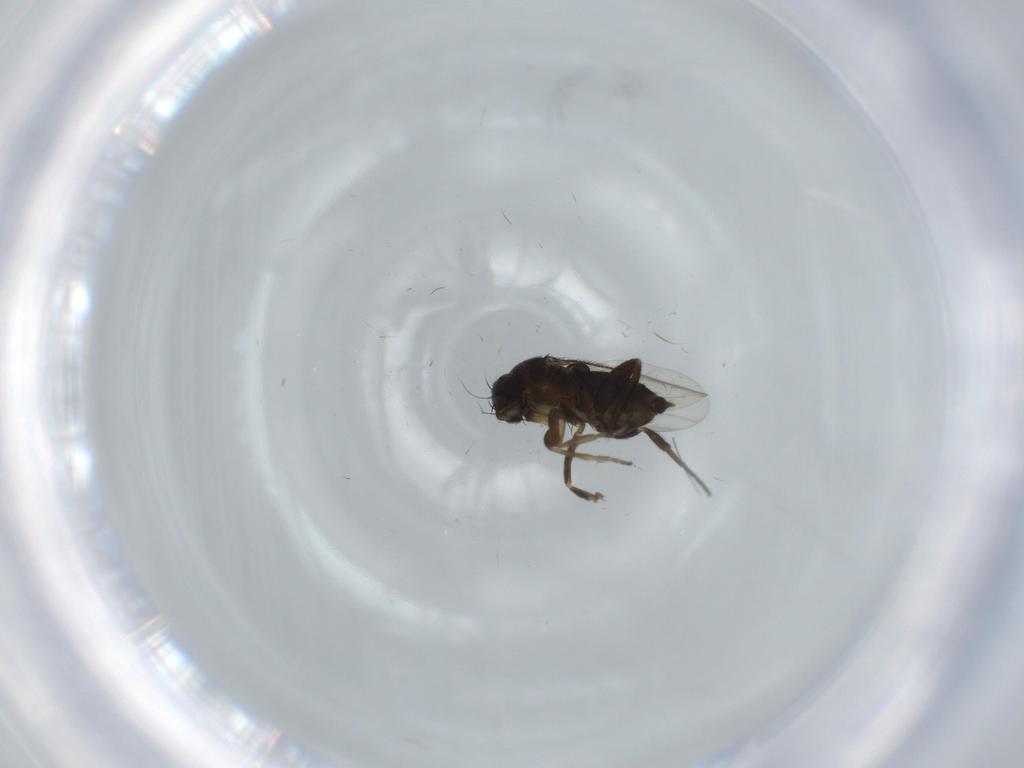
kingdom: Animalia
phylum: Arthropoda
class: Insecta
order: Diptera
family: Phoridae
